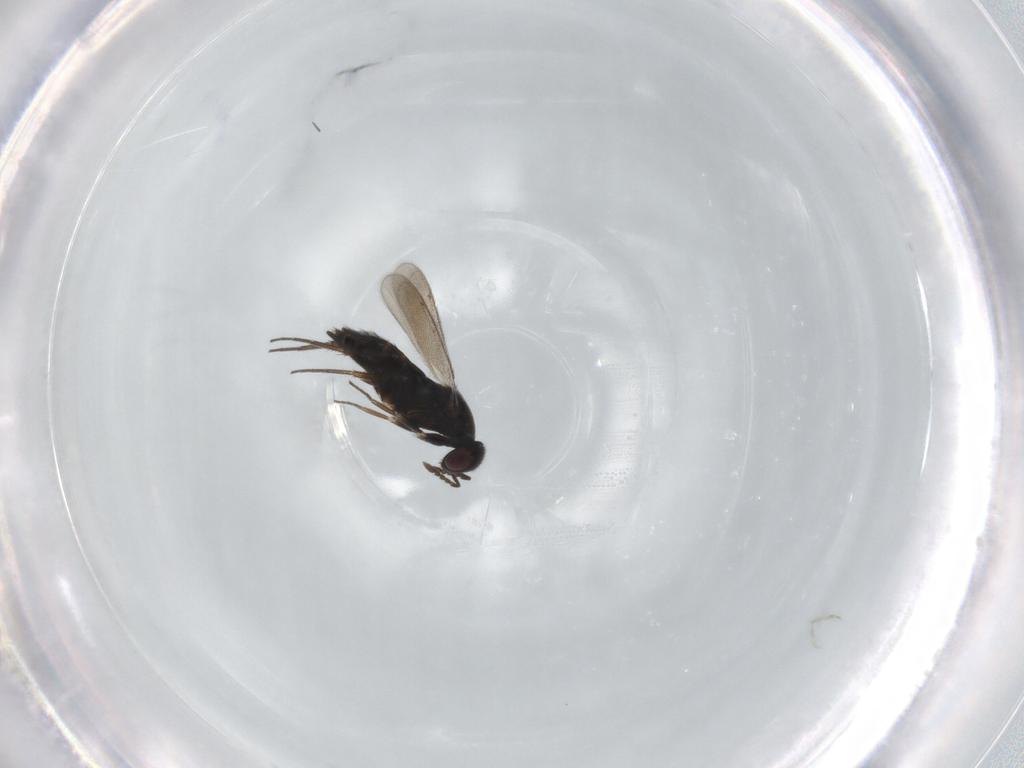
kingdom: Animalia
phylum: Arthropoda
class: Insecta
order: Hymenoptera
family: Eulophidae
